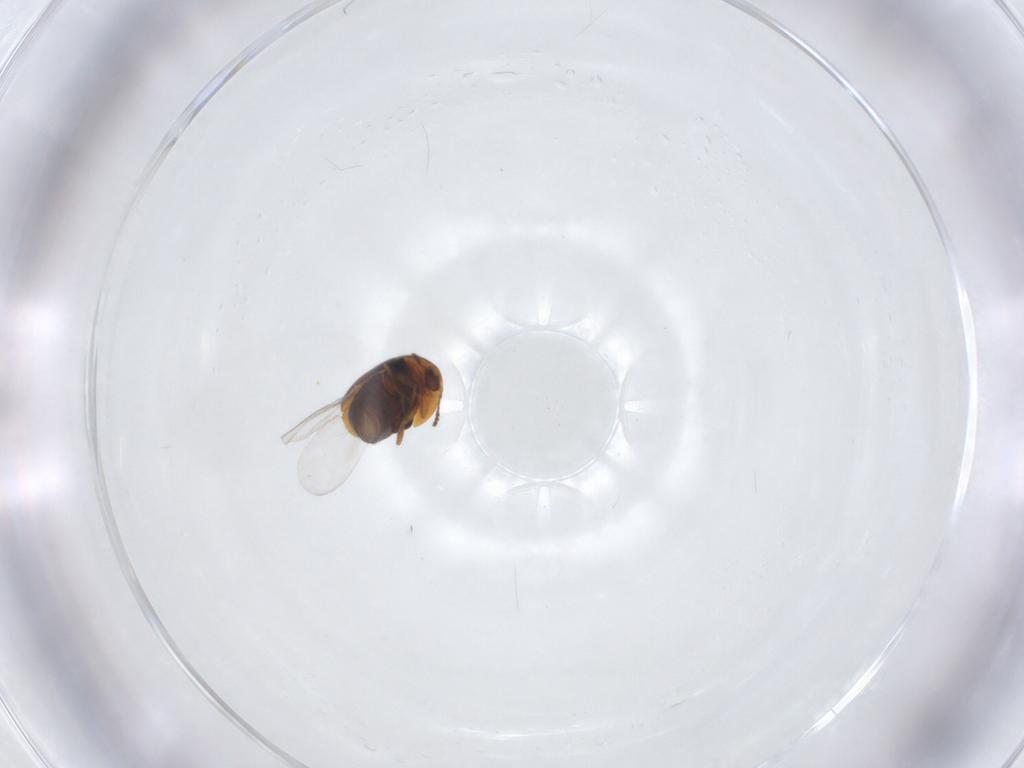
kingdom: Animalia
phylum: Arthropoda
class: Insecta
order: Coleoptera
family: Corylophidae
